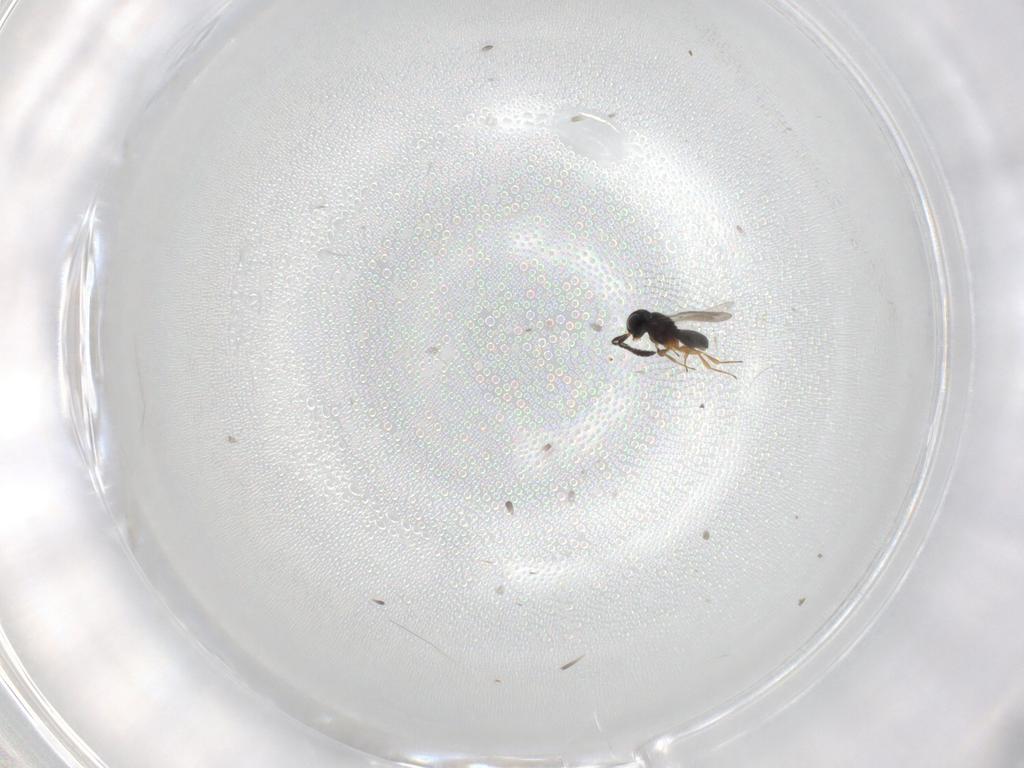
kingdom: Animalia
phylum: Arthropoda
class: Insecta
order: Hymenoptera
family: Scelionidae
